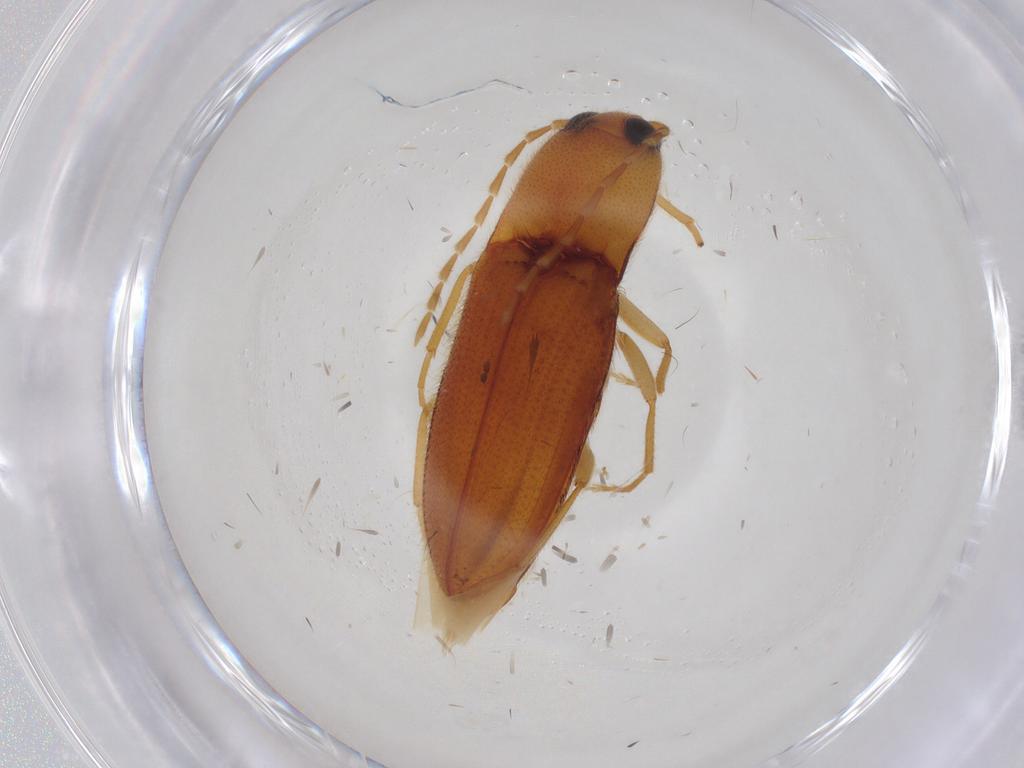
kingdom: Animalia
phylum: Arthropoda
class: Insecta
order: Coleoptera
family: Elateridae
